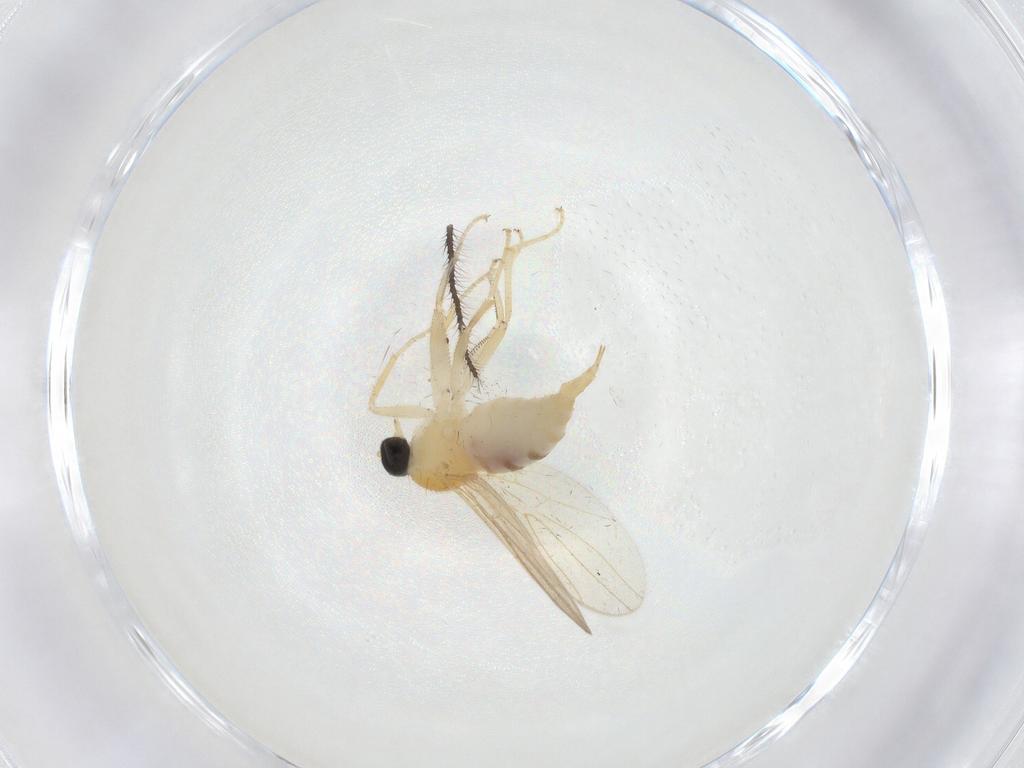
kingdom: Animalia
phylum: Arthropoda
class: Insecta
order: Diptera
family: Bibionidae
